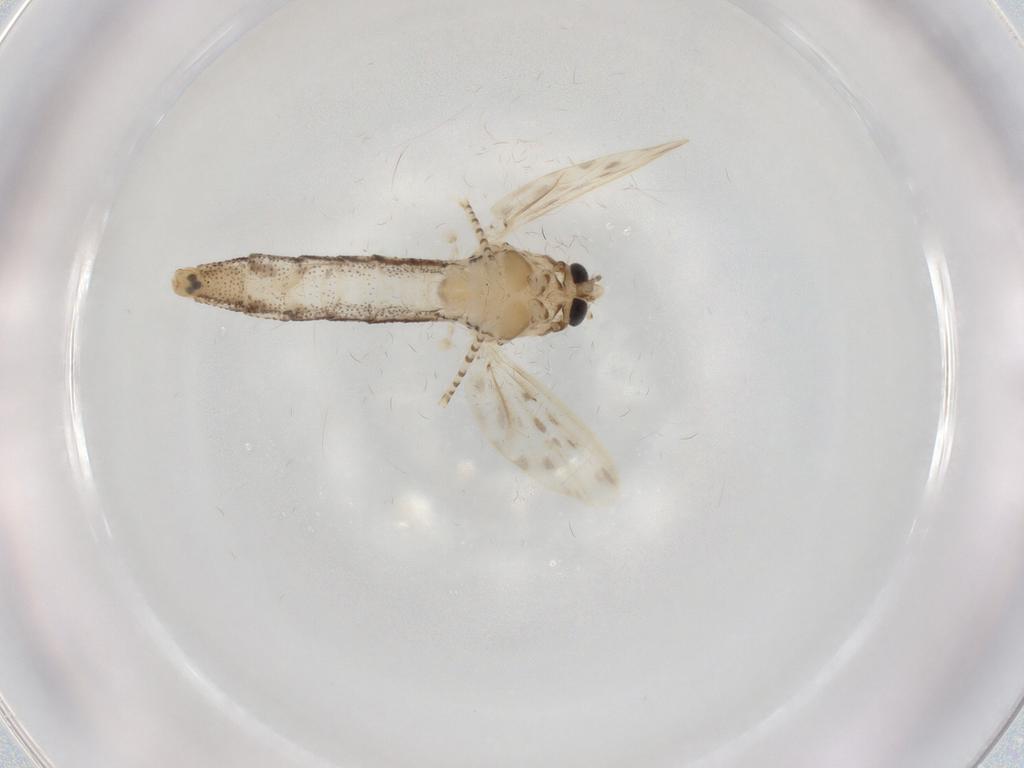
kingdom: Animalia
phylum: Arthropoda
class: Insecta
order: Diptera
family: Chaoboridae
